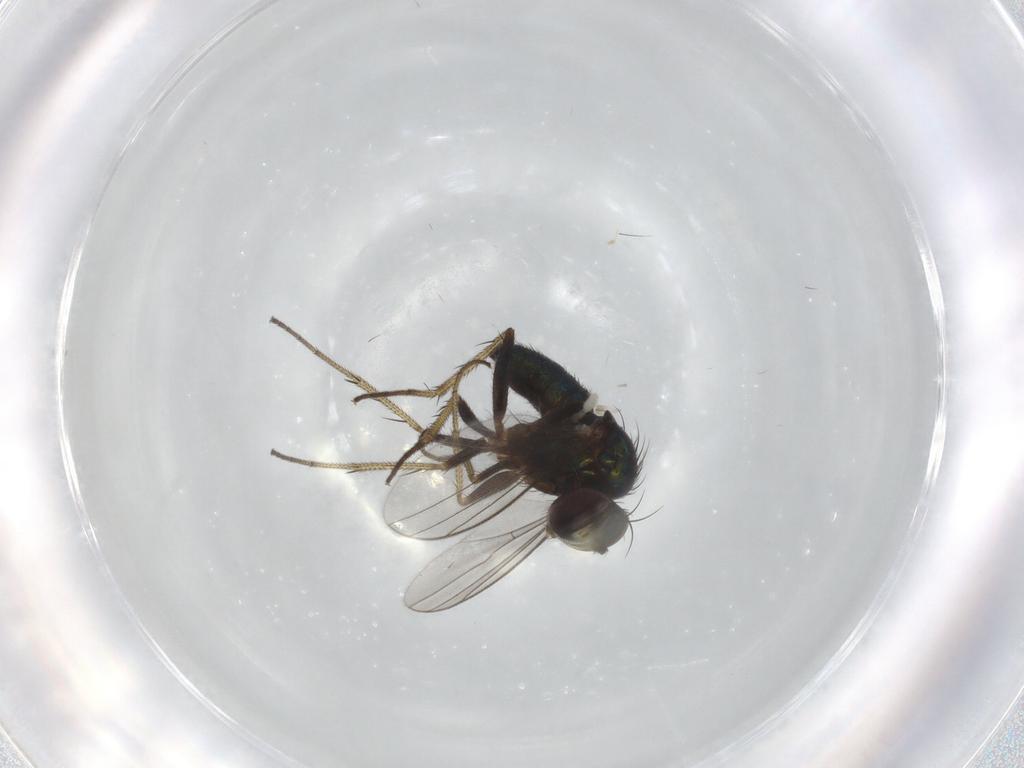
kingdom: Animalia
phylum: Arthropoda
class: Insecta
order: Diptera
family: Dolichopodidae
